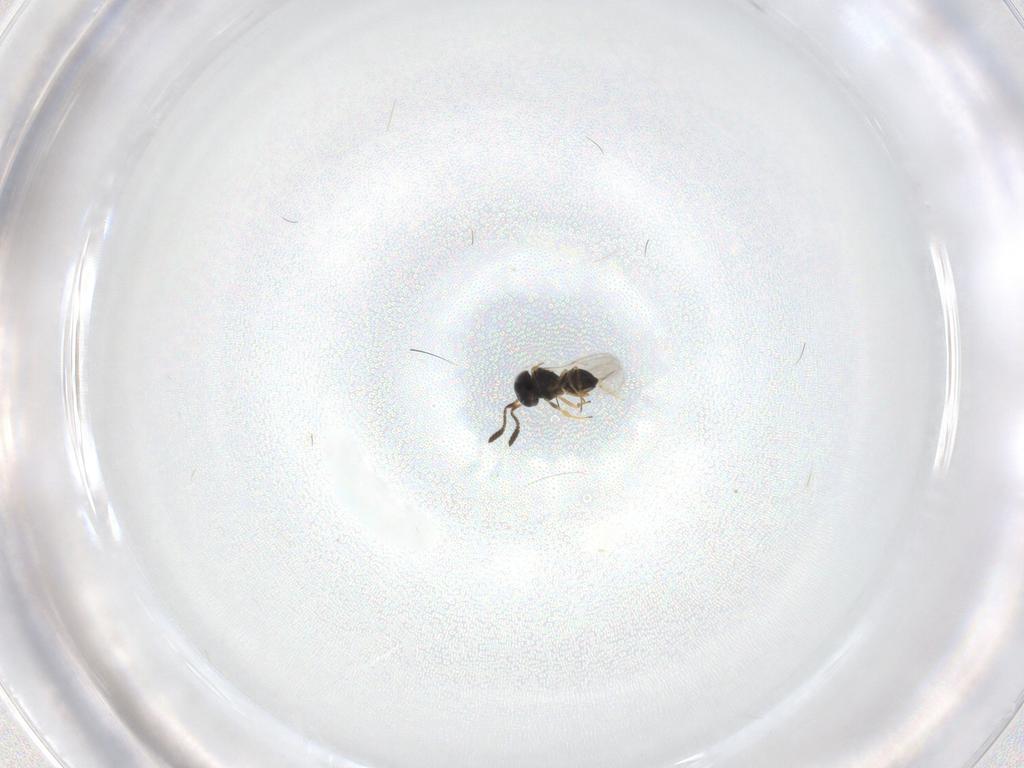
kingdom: Animalia
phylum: Arthropoda
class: Insecta
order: Hymenoptera
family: Scelionidae
